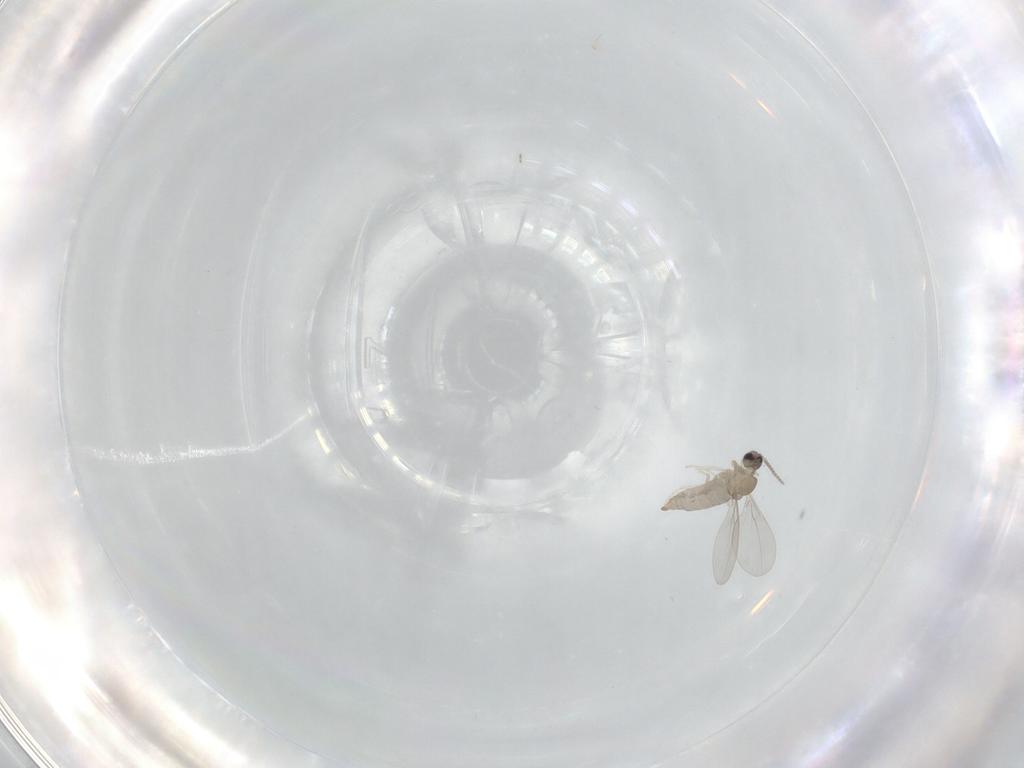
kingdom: Animalia
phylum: Arthropoda
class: Insecta
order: Diptera
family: Cecidomyiidae
